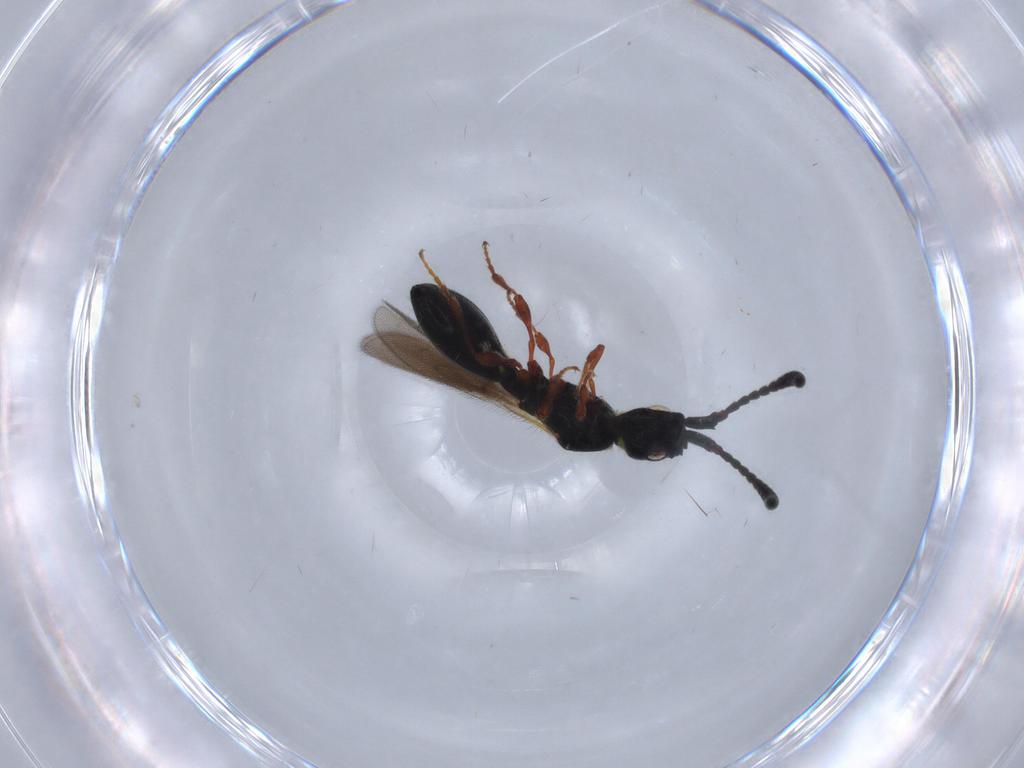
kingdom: Animalia
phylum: Arthropoda
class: Insecta
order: Hymenoptera
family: Diapriidae
